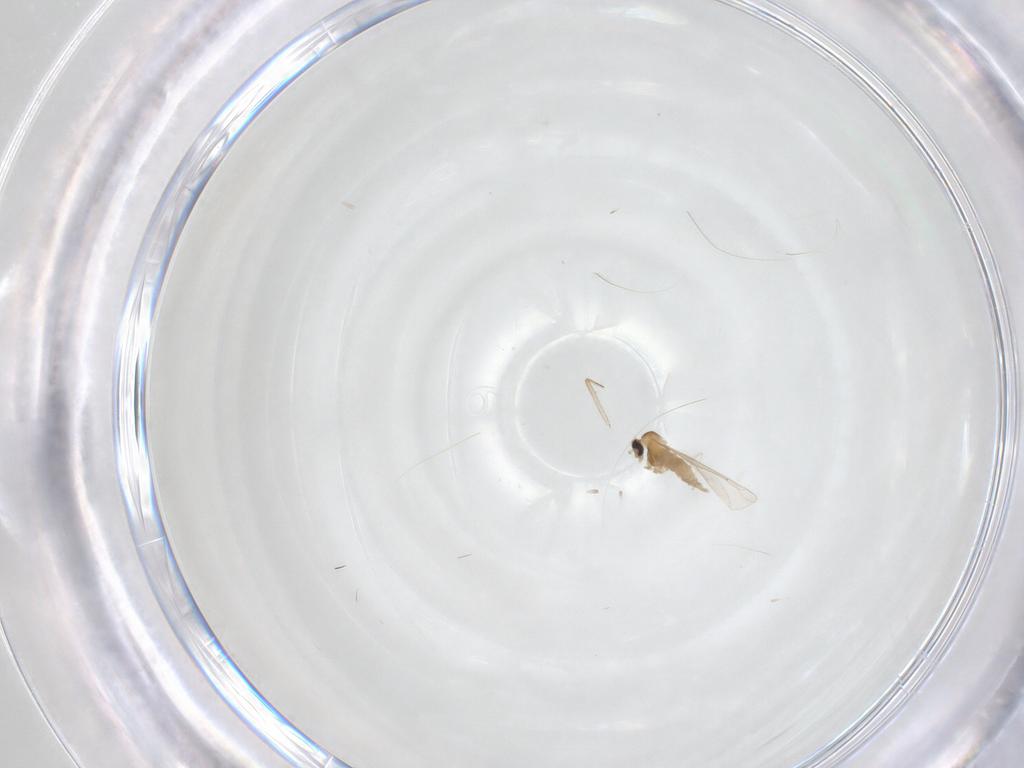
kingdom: Animalia
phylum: Arthropoda
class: Insecta
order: Diptera
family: Cecidomyiidae
